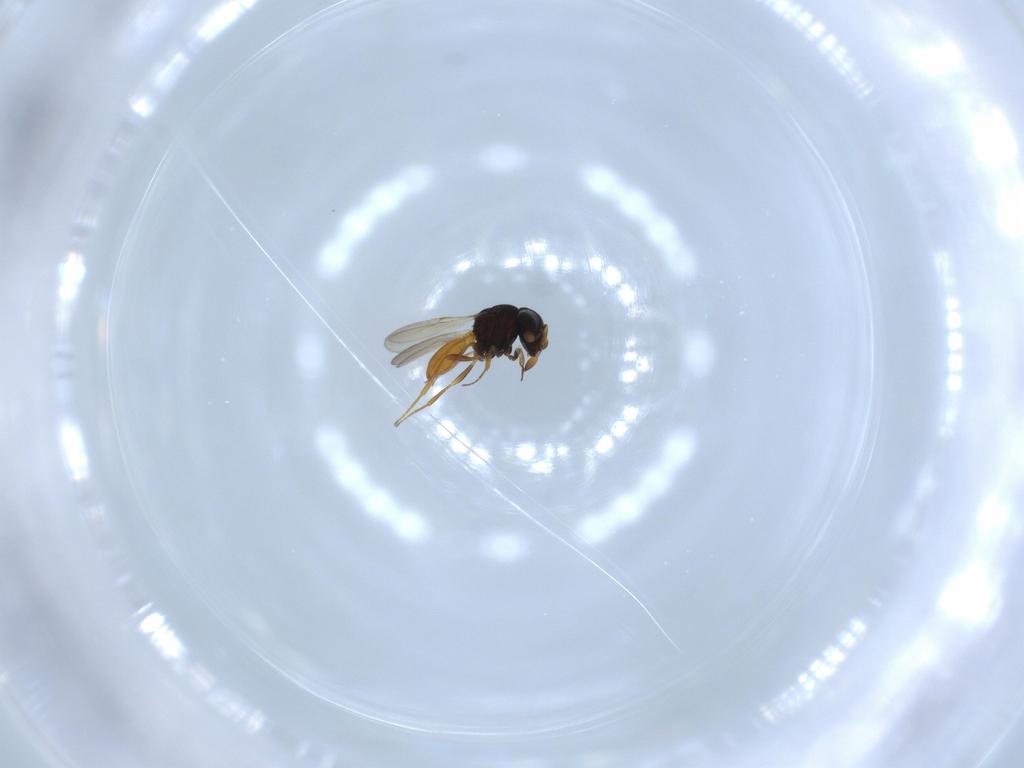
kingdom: Animalia
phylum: Arthropoda
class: Insecta
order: Hymenoptera
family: Scelionidae
